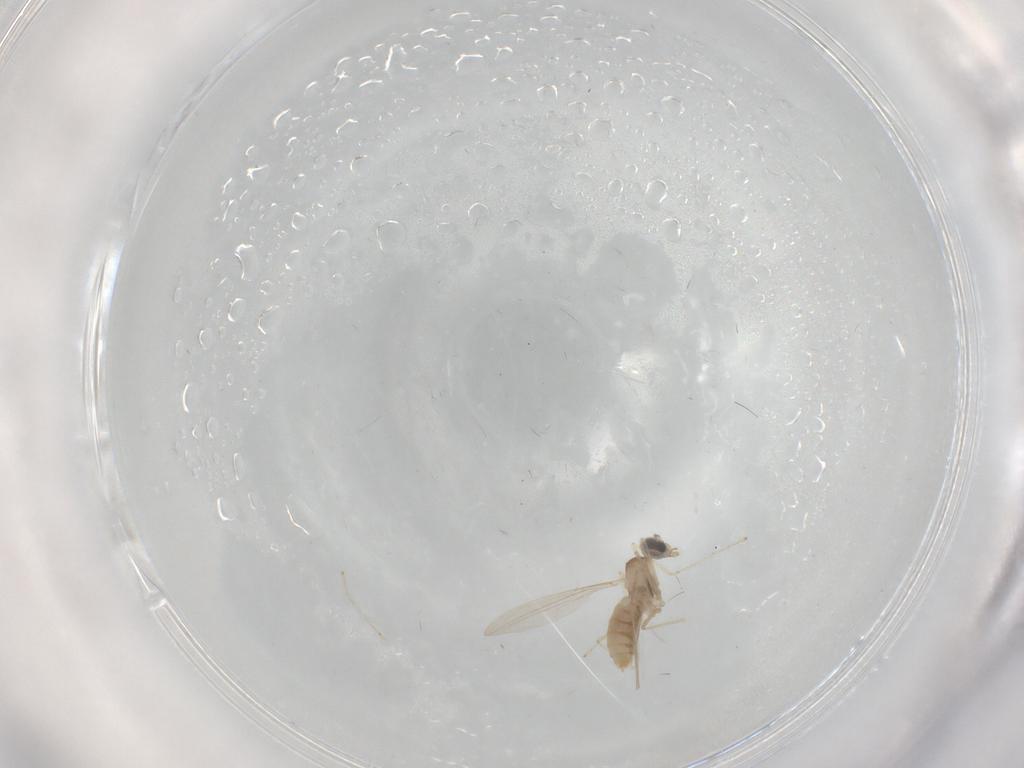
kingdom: Animalia
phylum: Arthropoda
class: Insecta
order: Diptera
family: Cecidomyiidae
